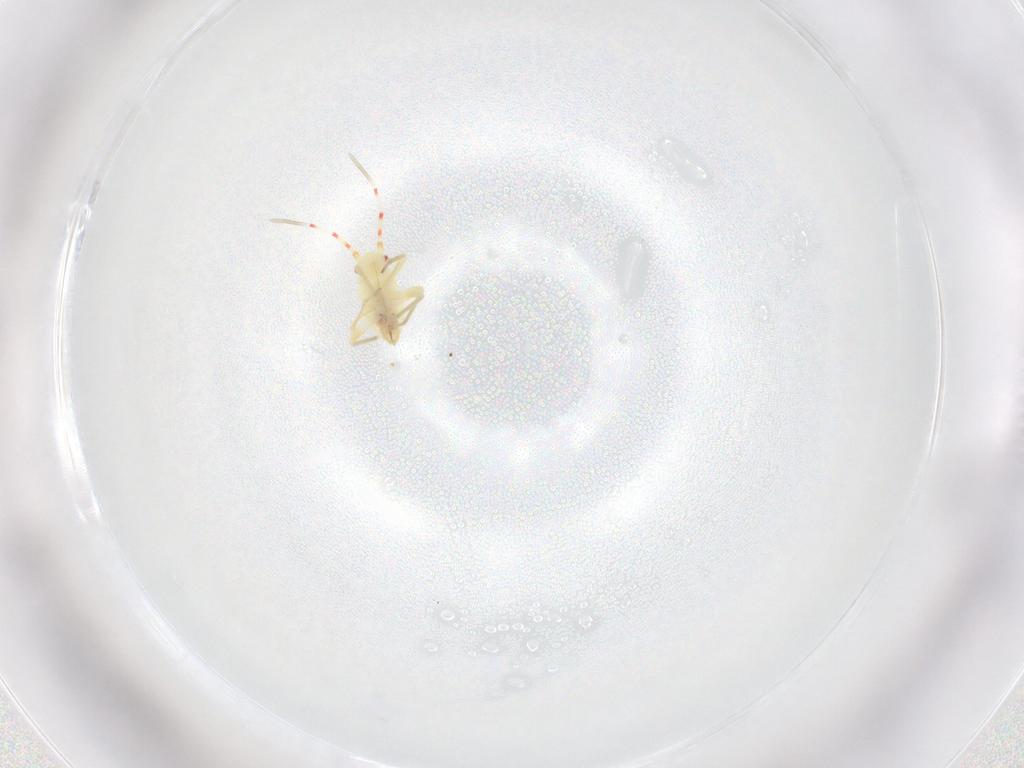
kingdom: Animalia
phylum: Arthropoda
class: Insecta
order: Hemiptera
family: Miridae
